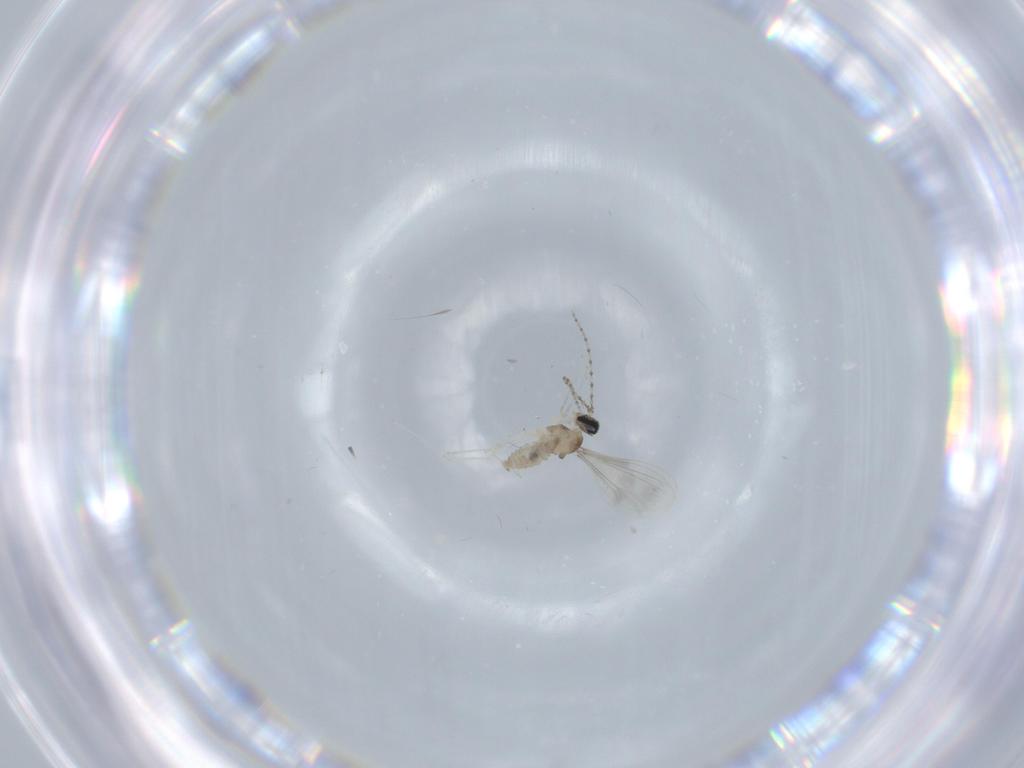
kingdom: Animalia
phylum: Arthropoda
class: Insecta
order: Diptera
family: Cecidomyiidae
